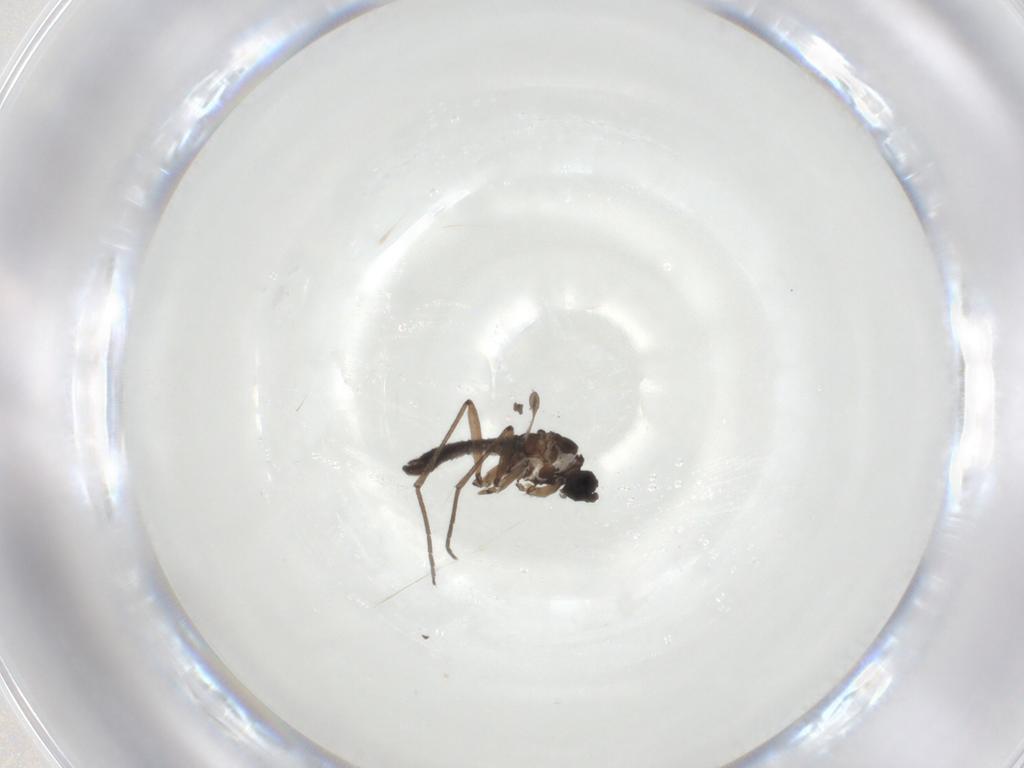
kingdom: Animalia
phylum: Arthropoda
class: Insecta
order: Diptera
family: Sciaridae
